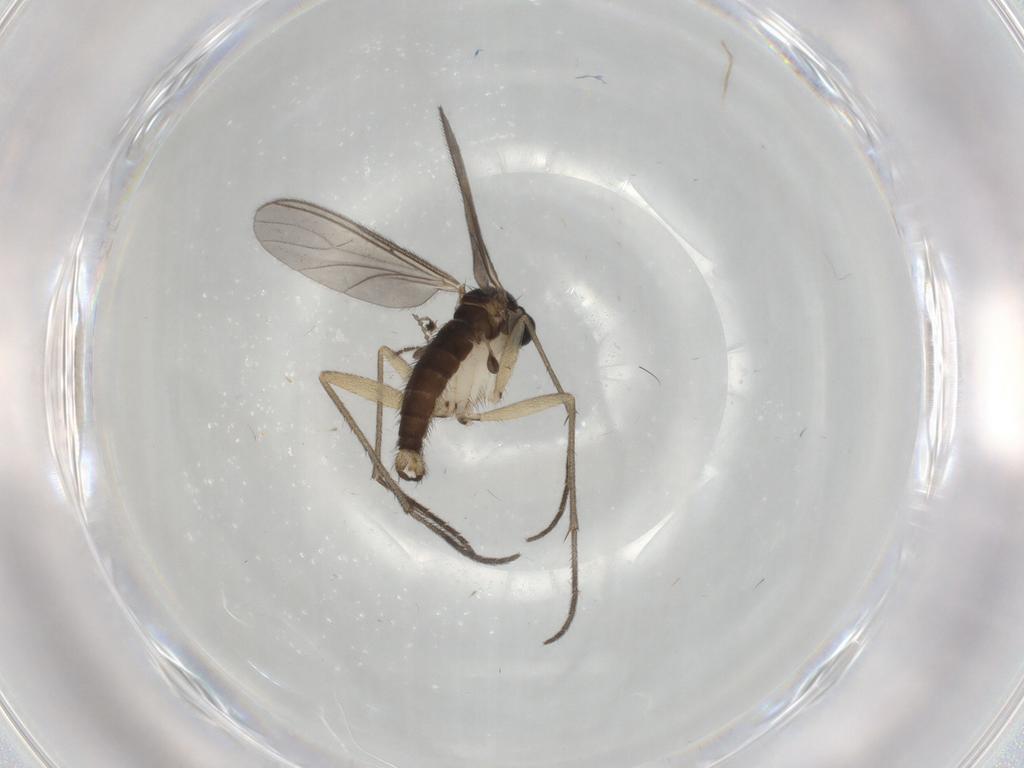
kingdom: Animalia
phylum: Arthropoda
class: Insecta
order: Diptera
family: Sciaridae
